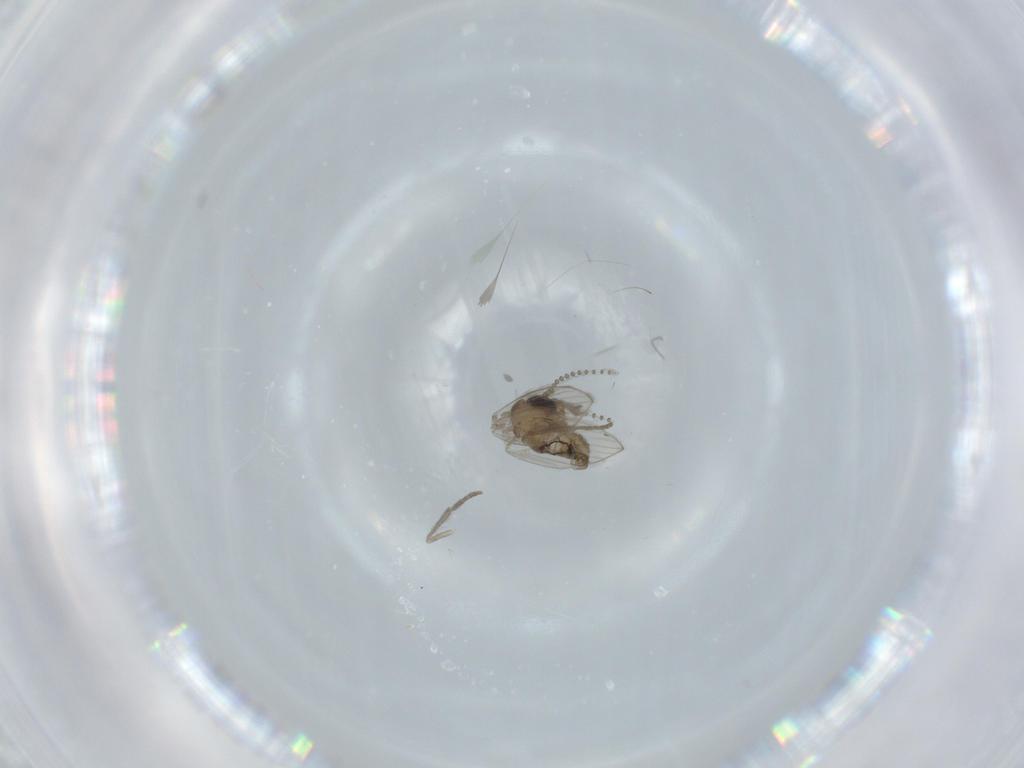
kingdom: Animalia
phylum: Arthropoda
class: Insecta
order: Diptera
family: Psychodidae
